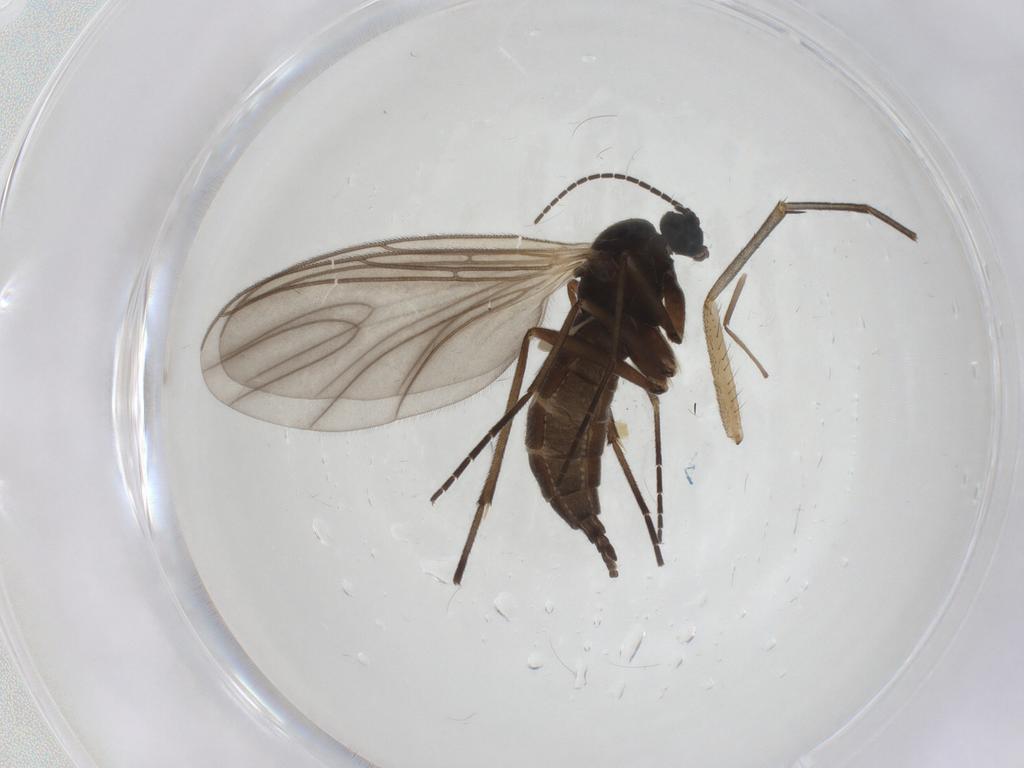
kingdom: Animalia
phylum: Arthropoda
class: Insecta
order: Diptera
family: Sciaridae
